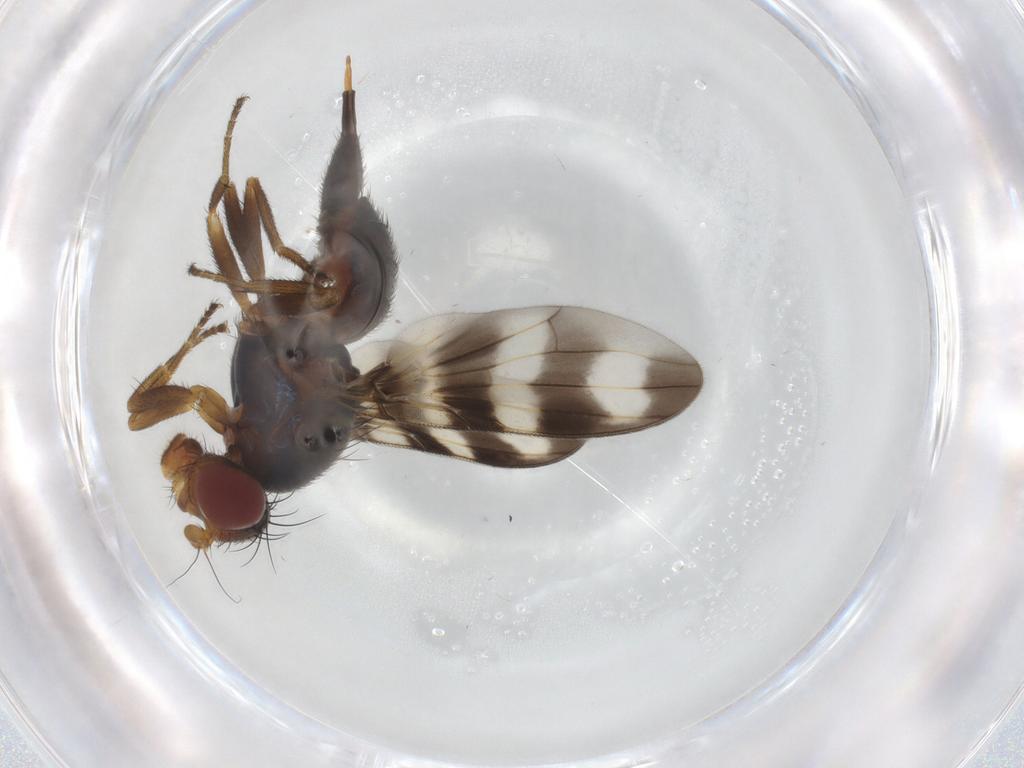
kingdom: Animalia
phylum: Arthropoda
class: Insecta
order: Diptera
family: Ulidiidae
